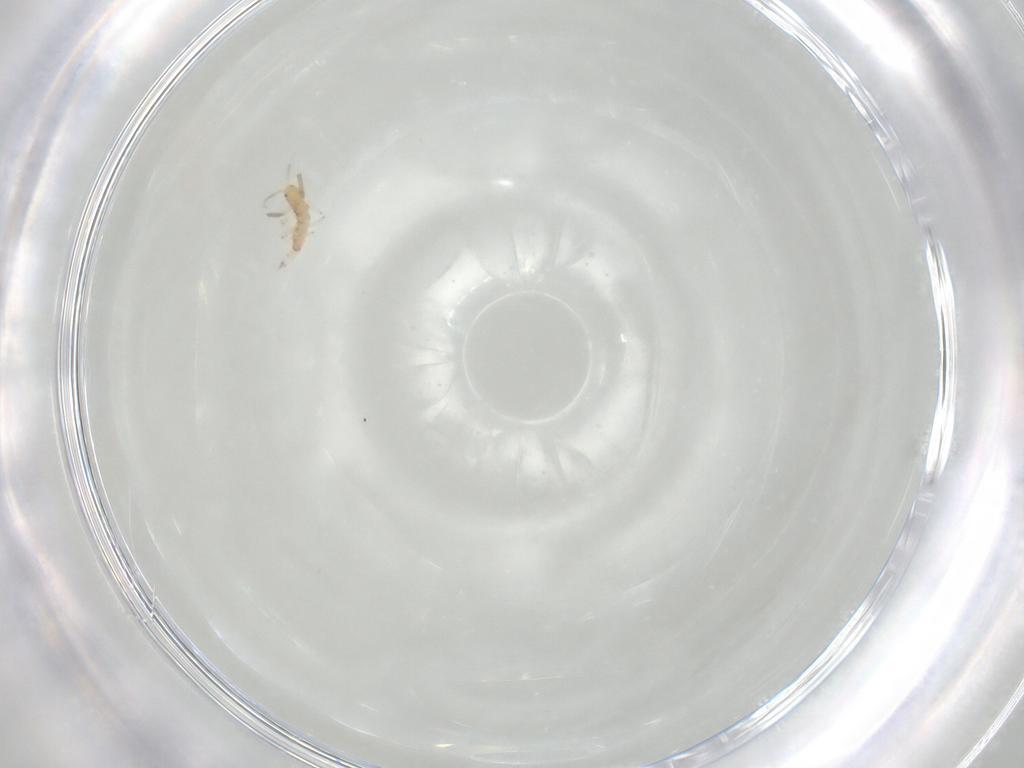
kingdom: Animalia
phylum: Arthropoda
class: Insecta
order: Thysanoptera
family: Aeolothripidae
